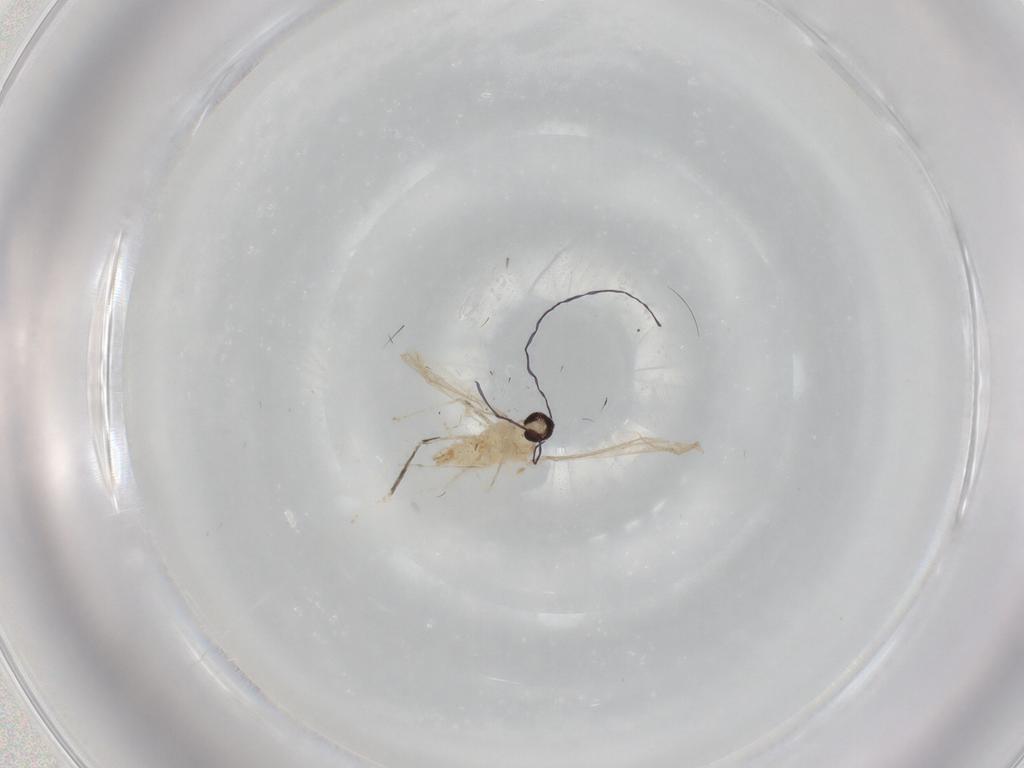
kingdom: Animalia
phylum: Arthropoda
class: Insecta
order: Diptera
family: Cecidomyiidae
